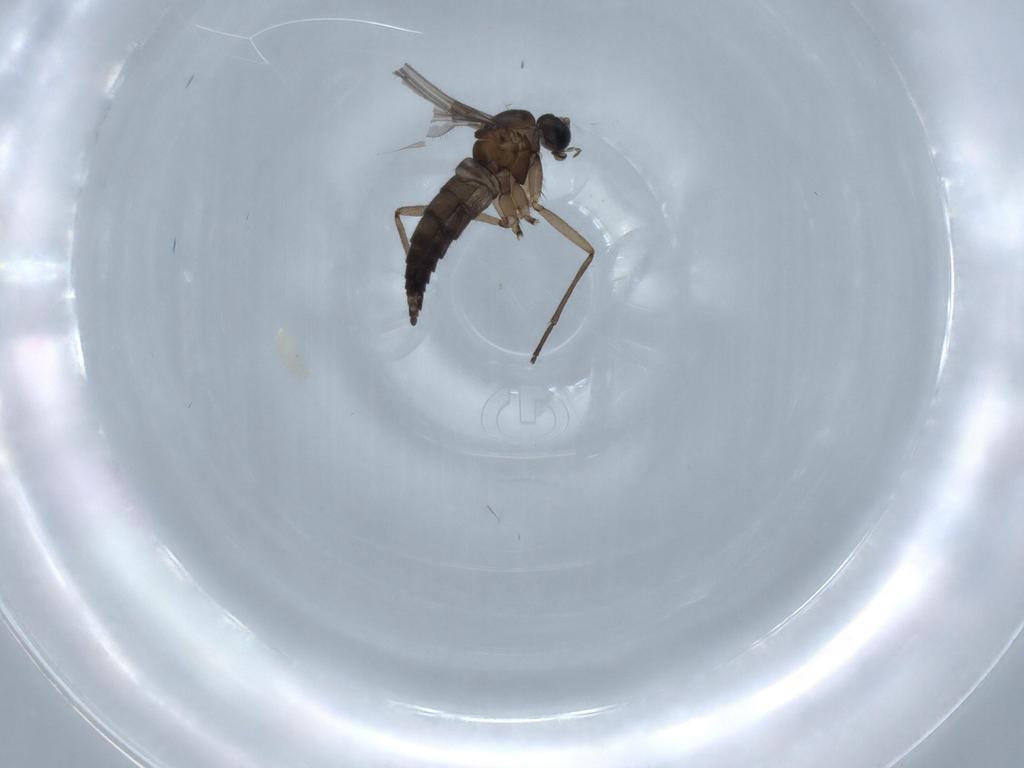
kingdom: Animalia
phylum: Arthropoda
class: Insecta
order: Diptera
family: Sciaridae
